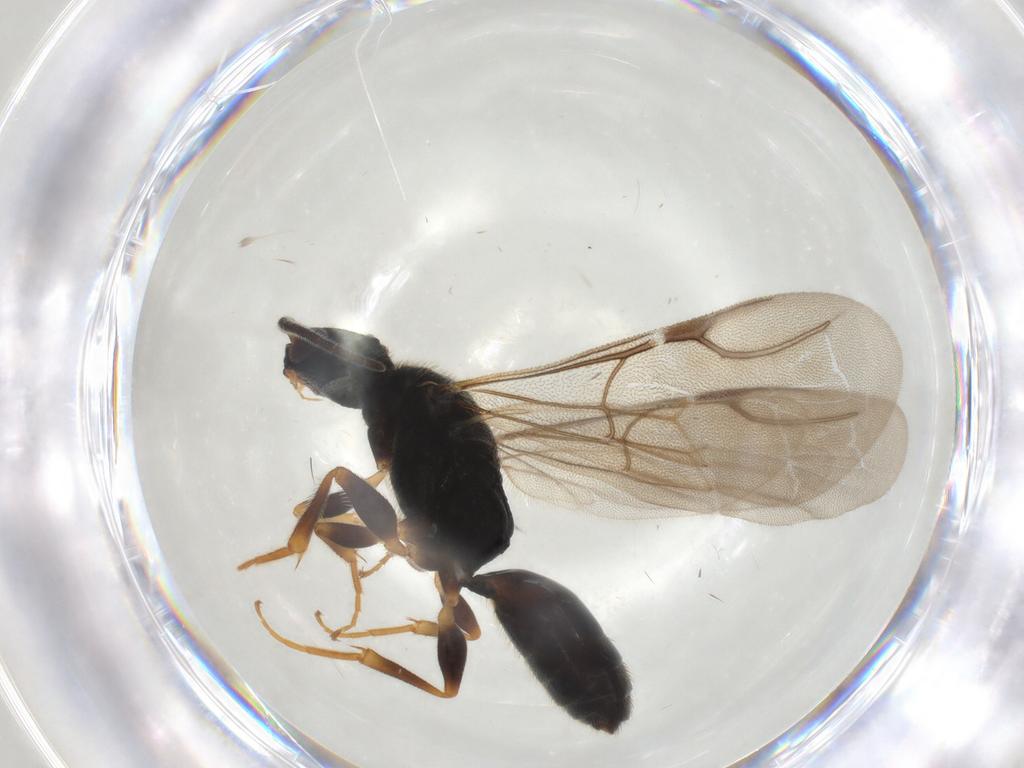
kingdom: Animalia
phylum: Arthropoda
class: Insecta
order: Hymenoptera
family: Bethylidae
